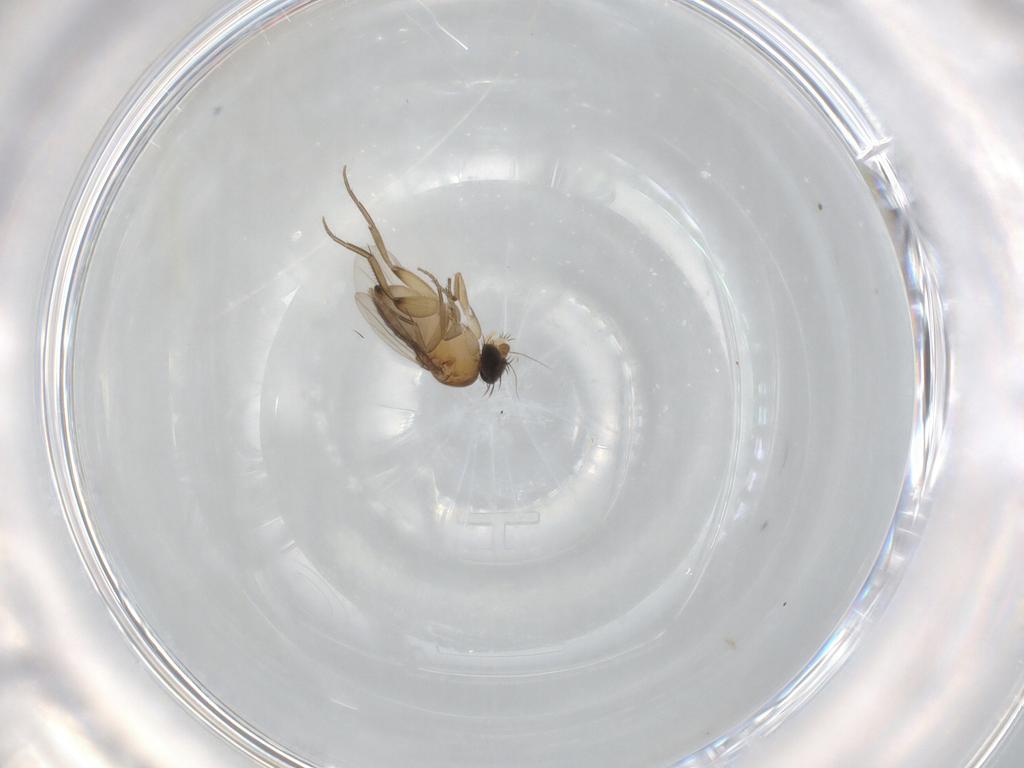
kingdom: Animalia
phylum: Arthropoda
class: Insecta
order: Diptera
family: Phoridae
